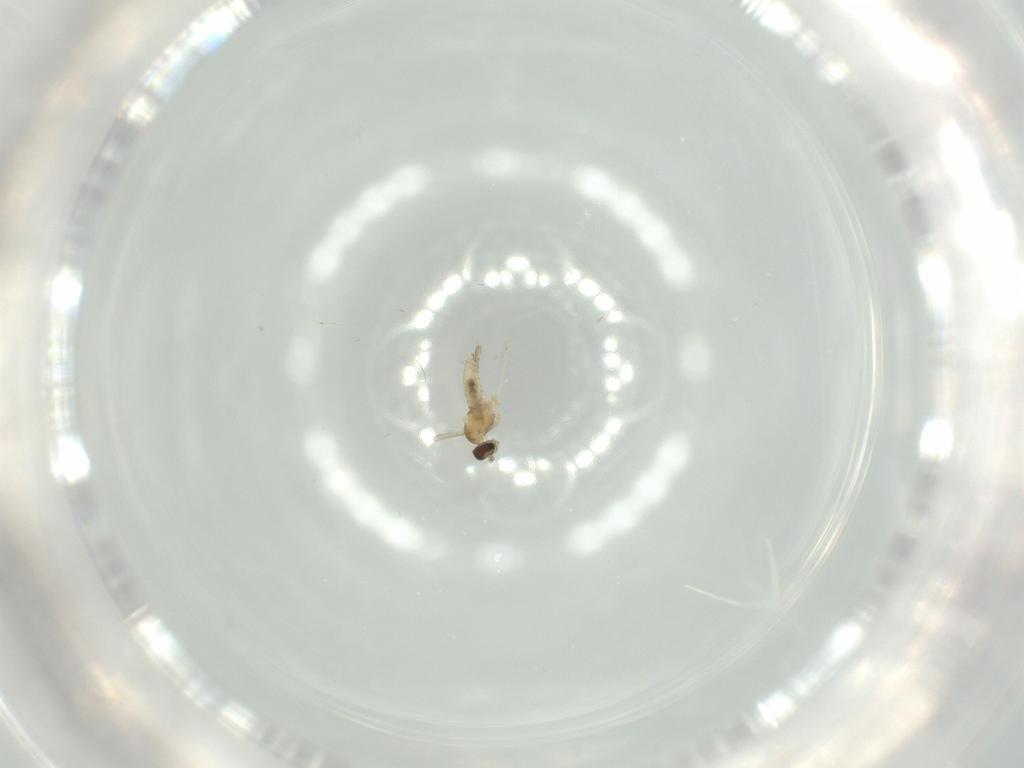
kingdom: Animalia
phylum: Arthropoda
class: Insecta
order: Diptera
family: Chaoboridae
